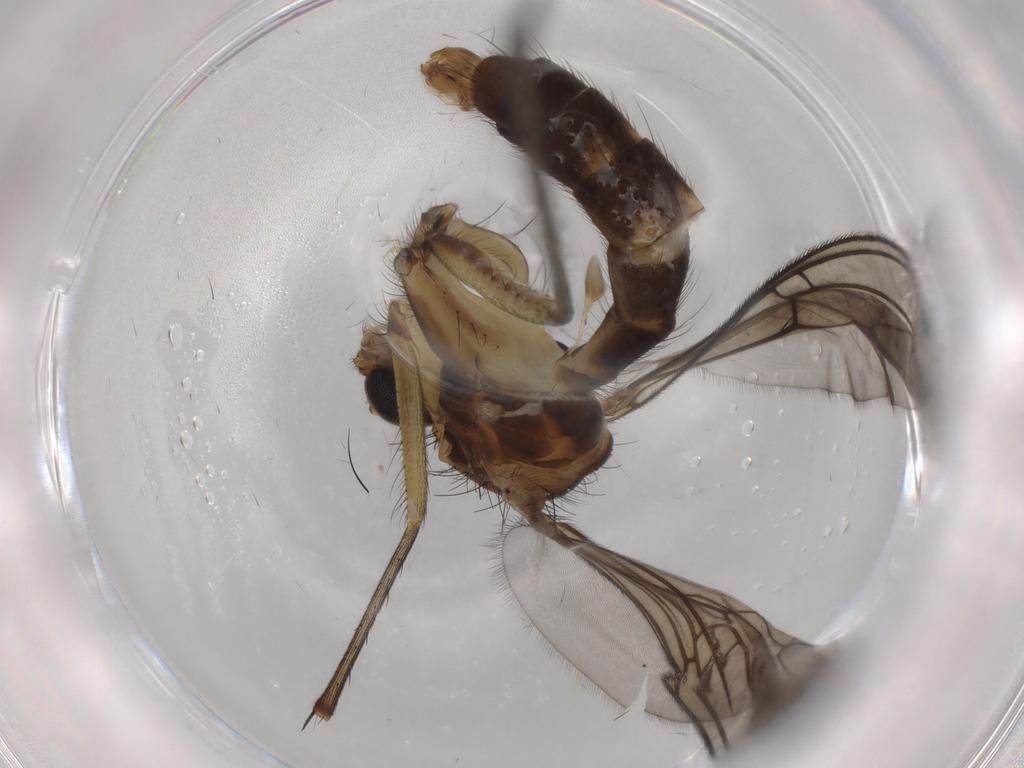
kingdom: Animalia
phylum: Arthropoda
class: Insecta
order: Diptera
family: Mycetophilidae
